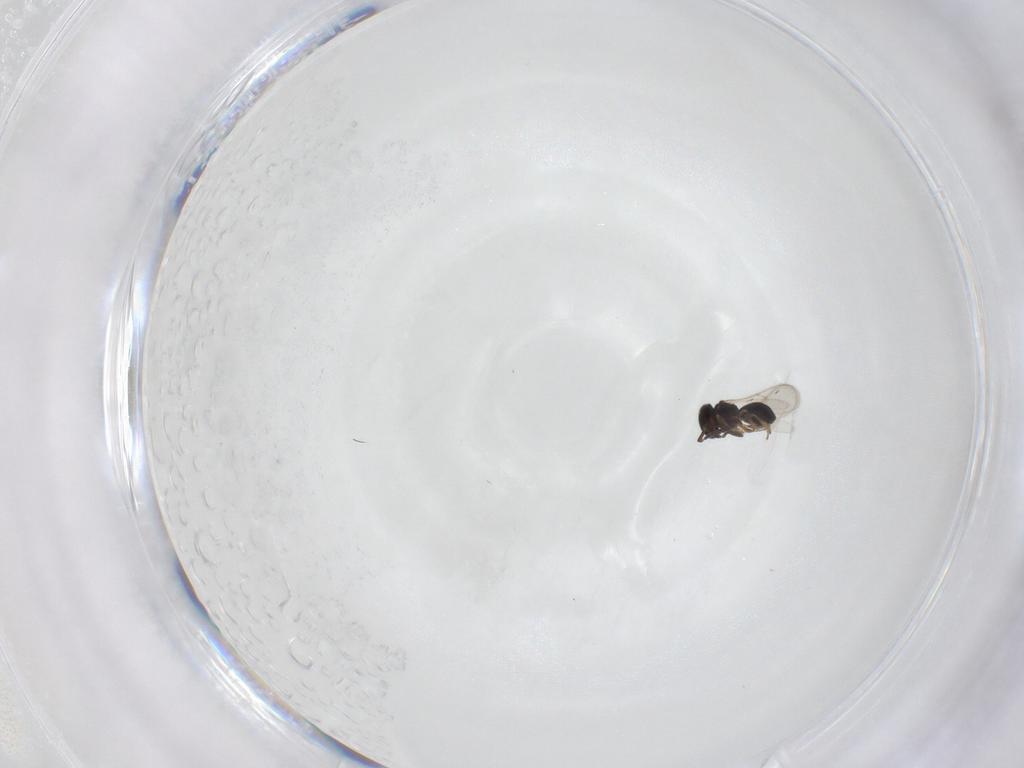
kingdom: Animalia
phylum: Arthropoda
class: Insecta
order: Hymenoptera
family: Scelionidae
